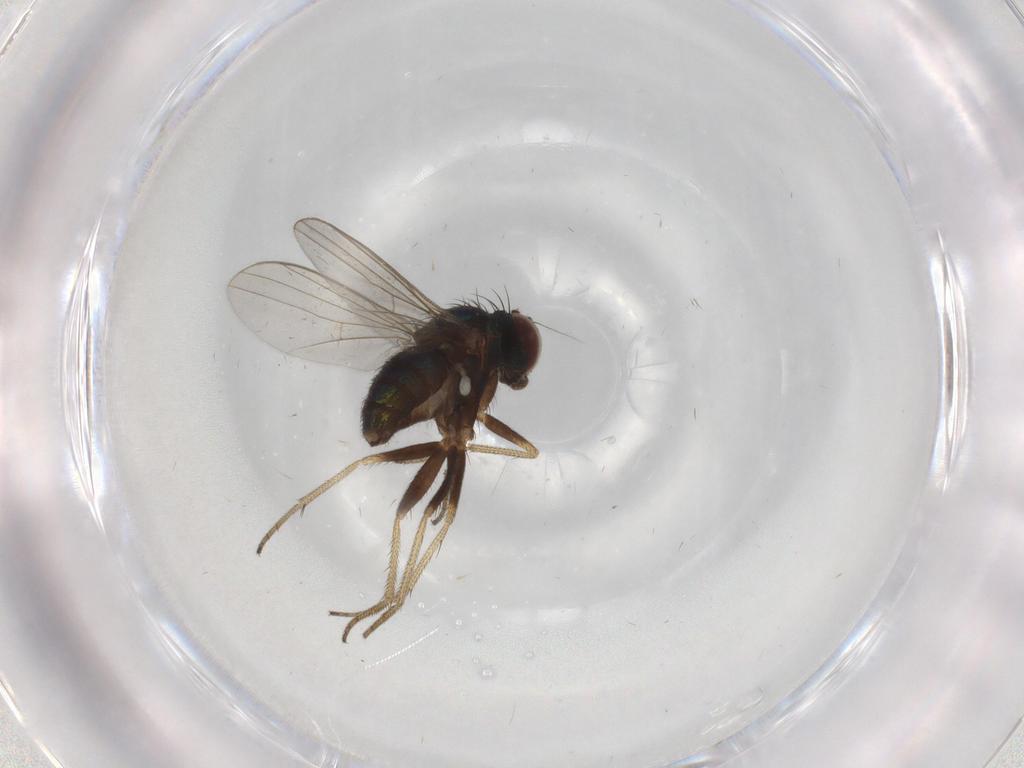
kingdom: Animalia
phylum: Arthropoda
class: Insecta
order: Diptera
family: Dolichopodidae
